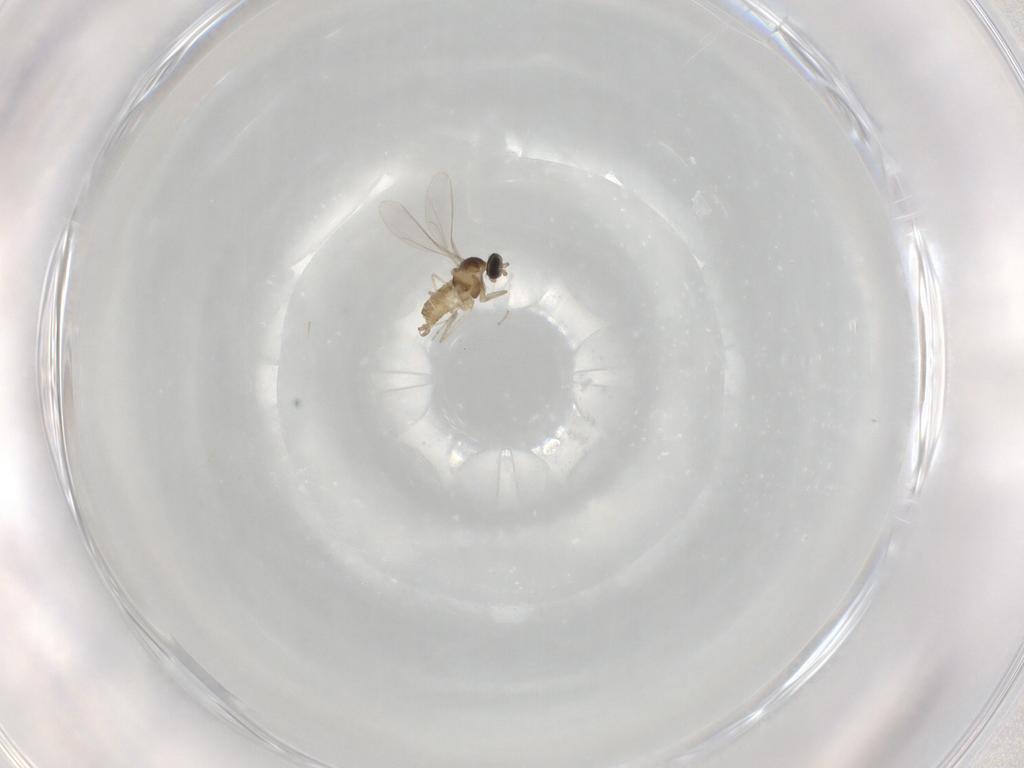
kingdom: Animalia
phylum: Arthropoda
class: Insecta
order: Diptera
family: Cecidomyiidae
